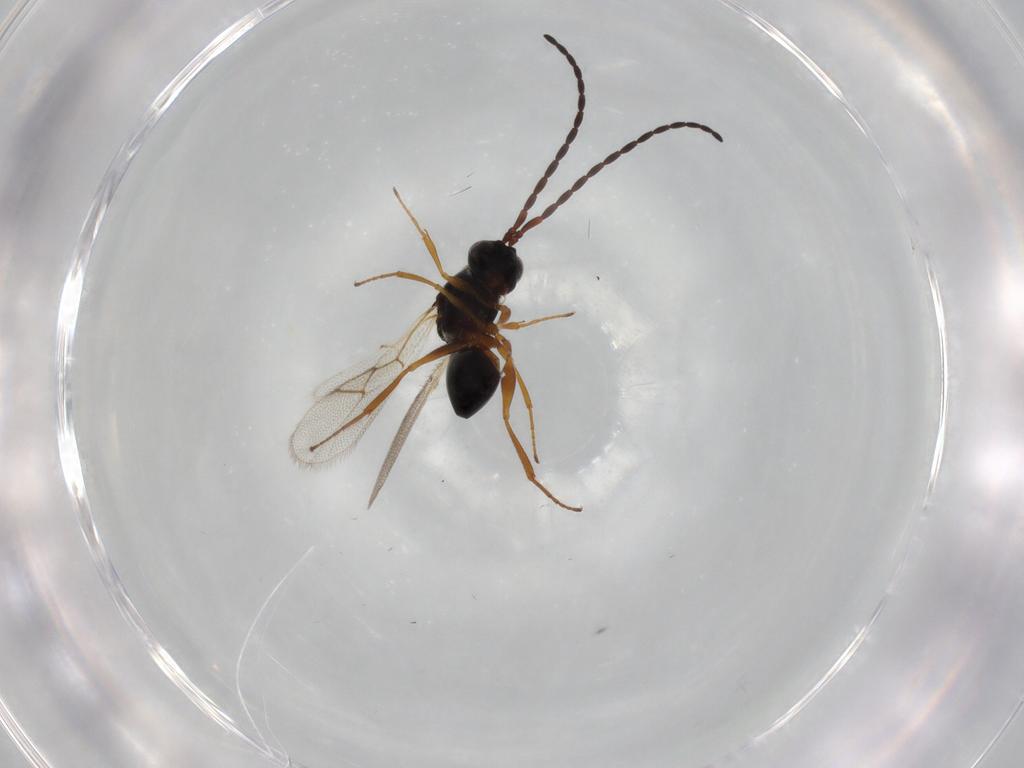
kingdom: Animalia
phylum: Arthropoda
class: Insecta
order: Hymenoptera
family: Figitidae
